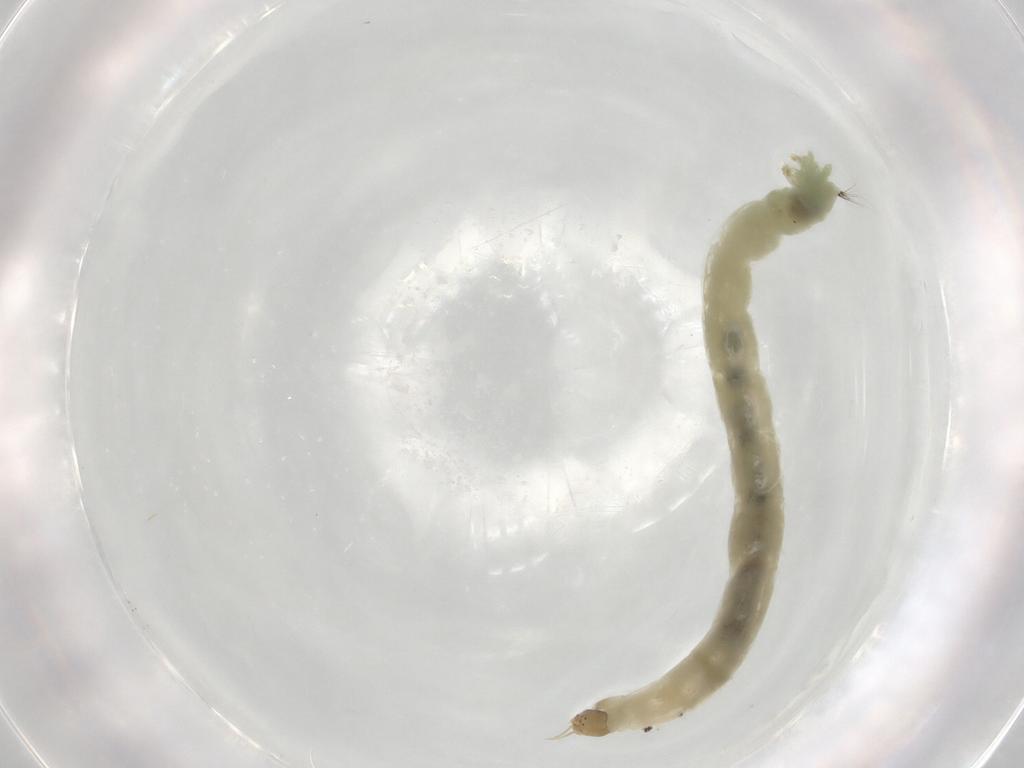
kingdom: Animalia
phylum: Arthropoda
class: Insecta
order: Diptera
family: Chironomidae
